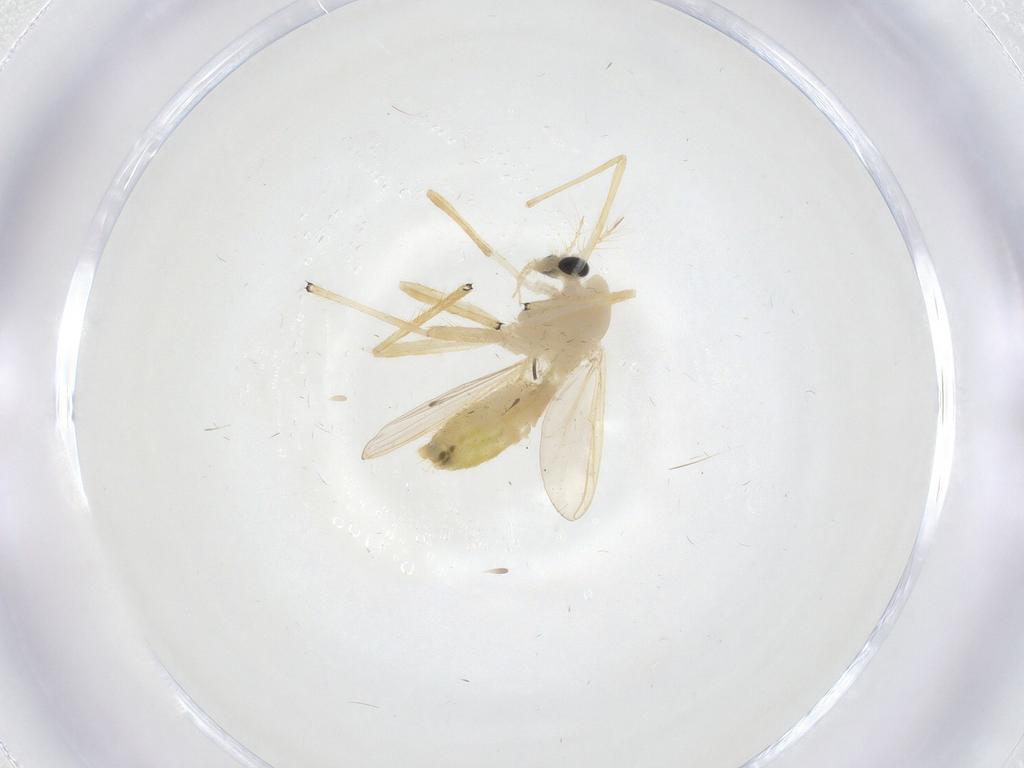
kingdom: Animalia
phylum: Arthropoda
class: Insecta
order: Diptera
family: Chironomidae
